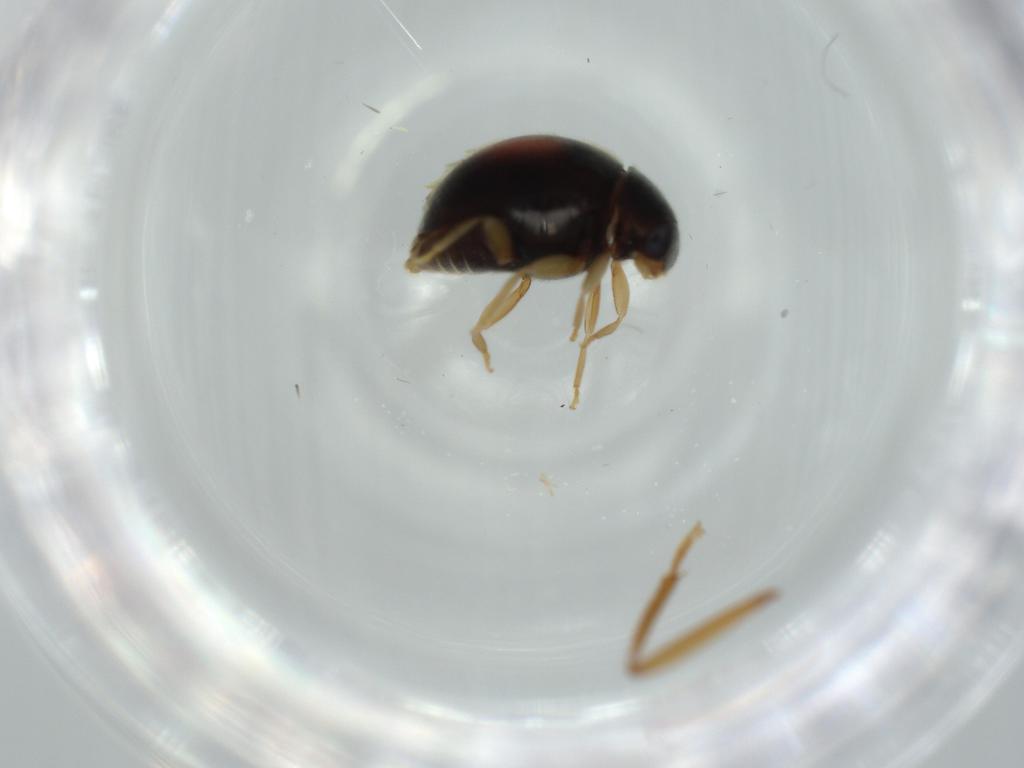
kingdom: Animalia
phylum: Arthropoda
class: Insecta
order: Coleoptera
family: Coccinellidae
